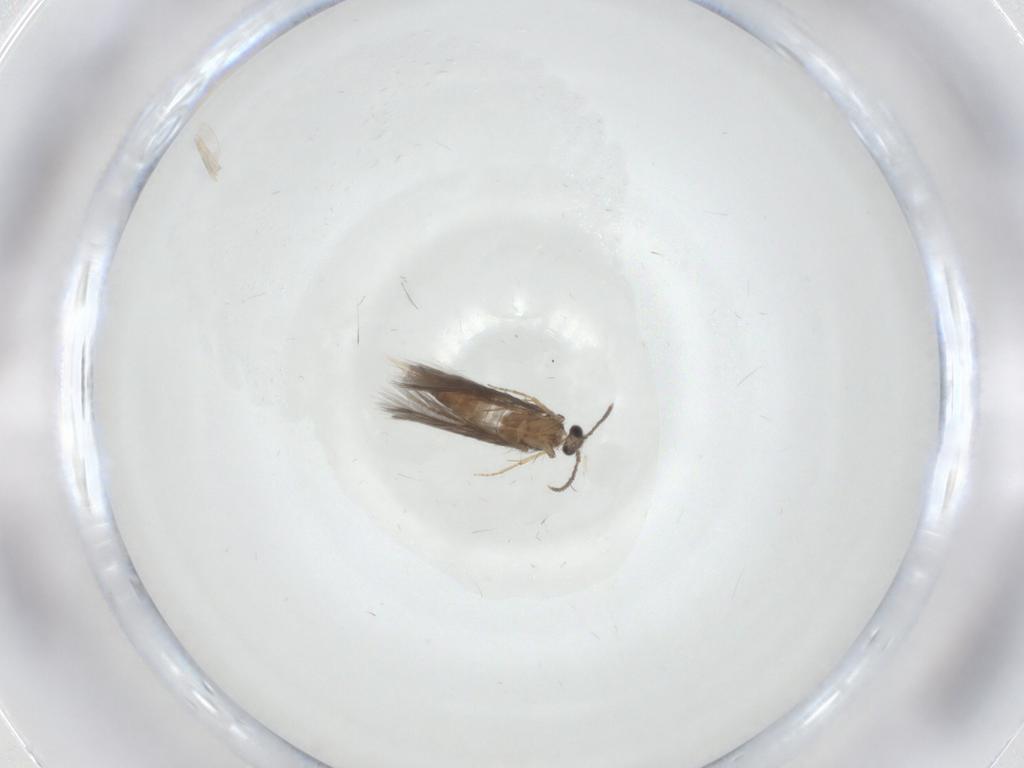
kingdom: Animalia
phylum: Arthropoda
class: Insecta
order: Trichoptera
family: Hydroptilidae
